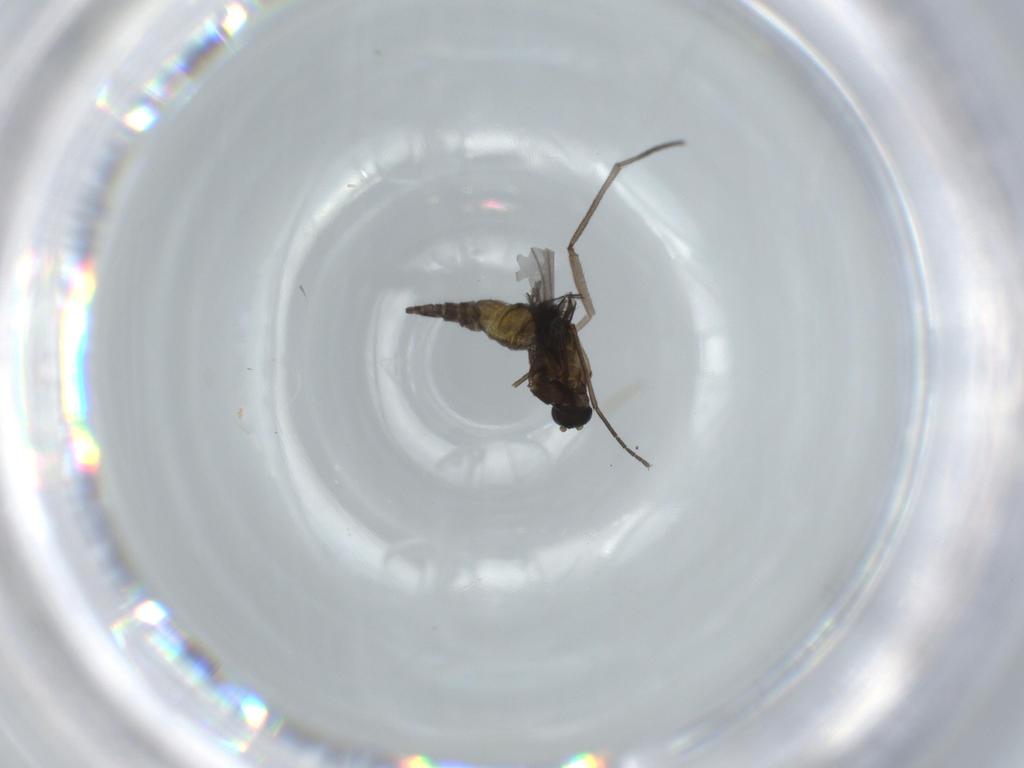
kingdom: Animalia
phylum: Arthropoda
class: Insecta
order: Diptera
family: Sciaridae
